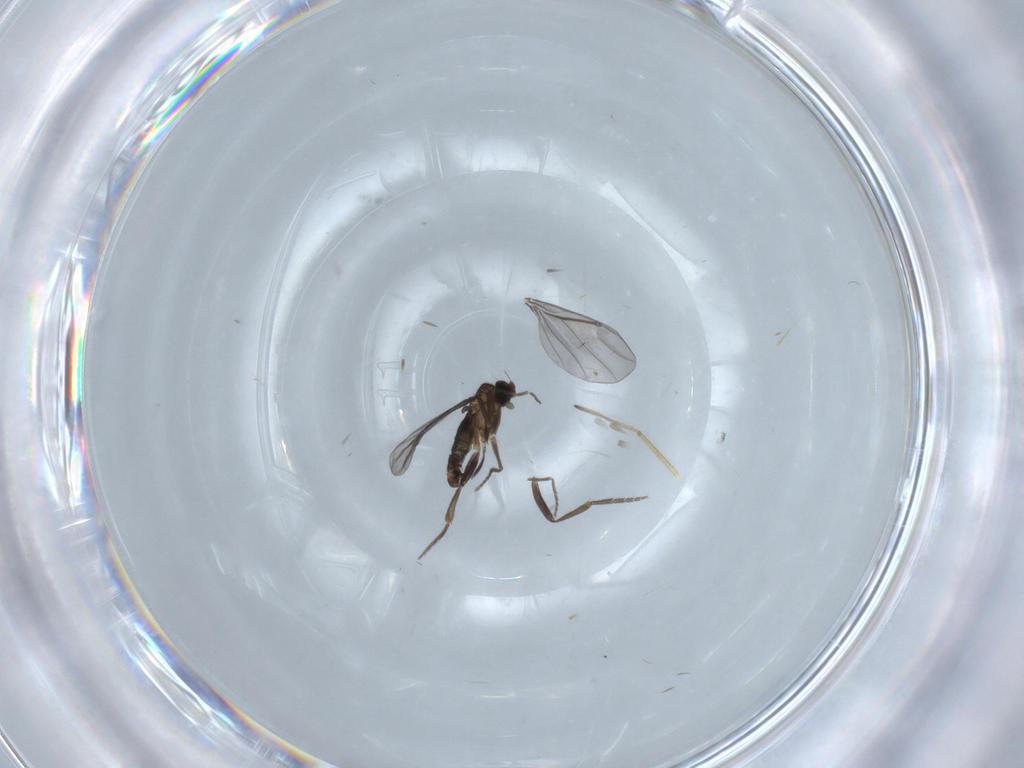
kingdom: Animalia
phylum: Arthropoda
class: Insecta
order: Diptera
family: Phoridae
